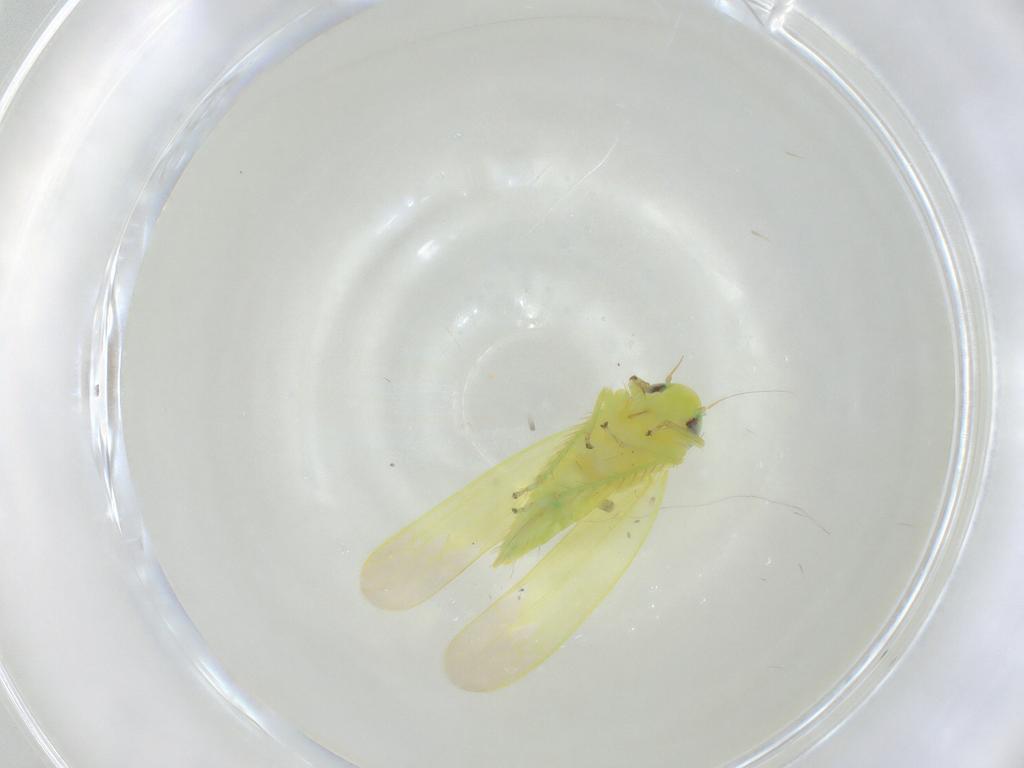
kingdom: Animalia
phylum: Arthropoda
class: Insecta
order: Hemiptera
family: Cicadellidae
